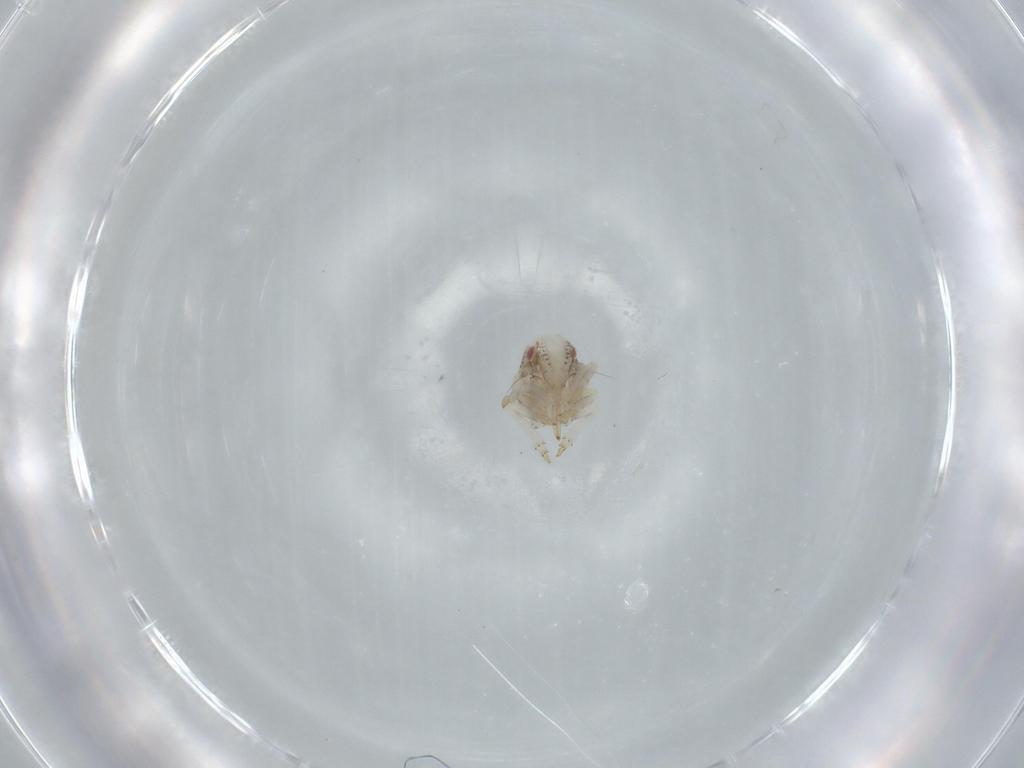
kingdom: Animalia
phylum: Arthropoda
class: Insecta
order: Hemiptera
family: Acanaloniidae
